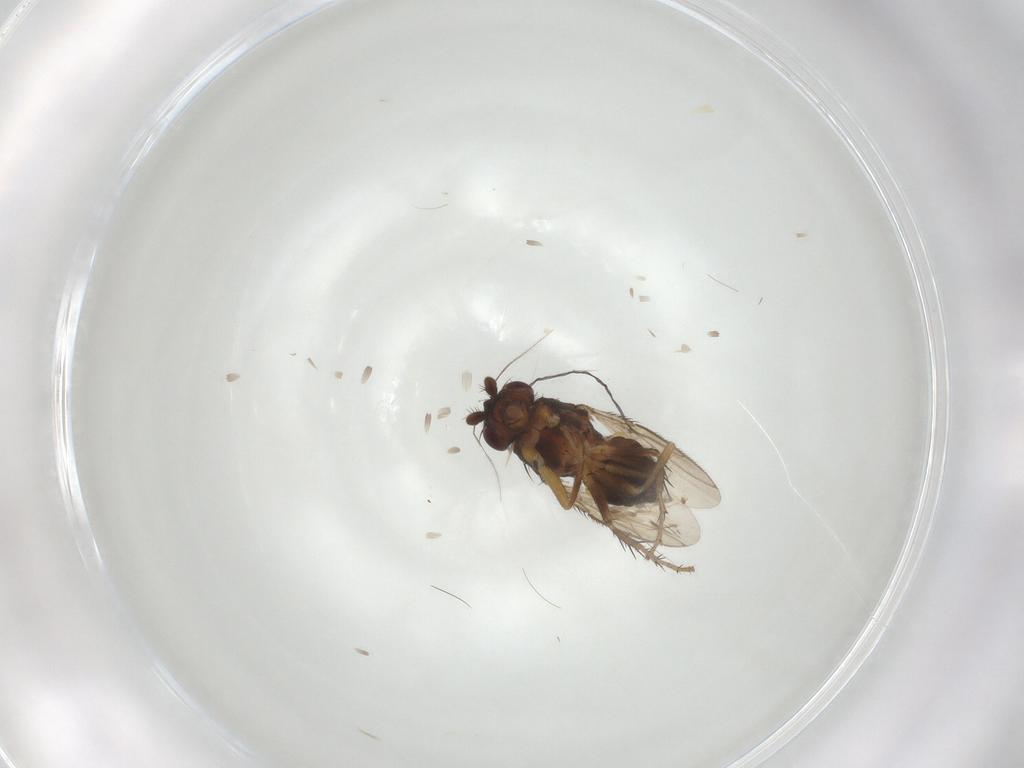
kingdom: Animalia
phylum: Arthropoda
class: Insecta
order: Diptera
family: Sphaeroceridae
